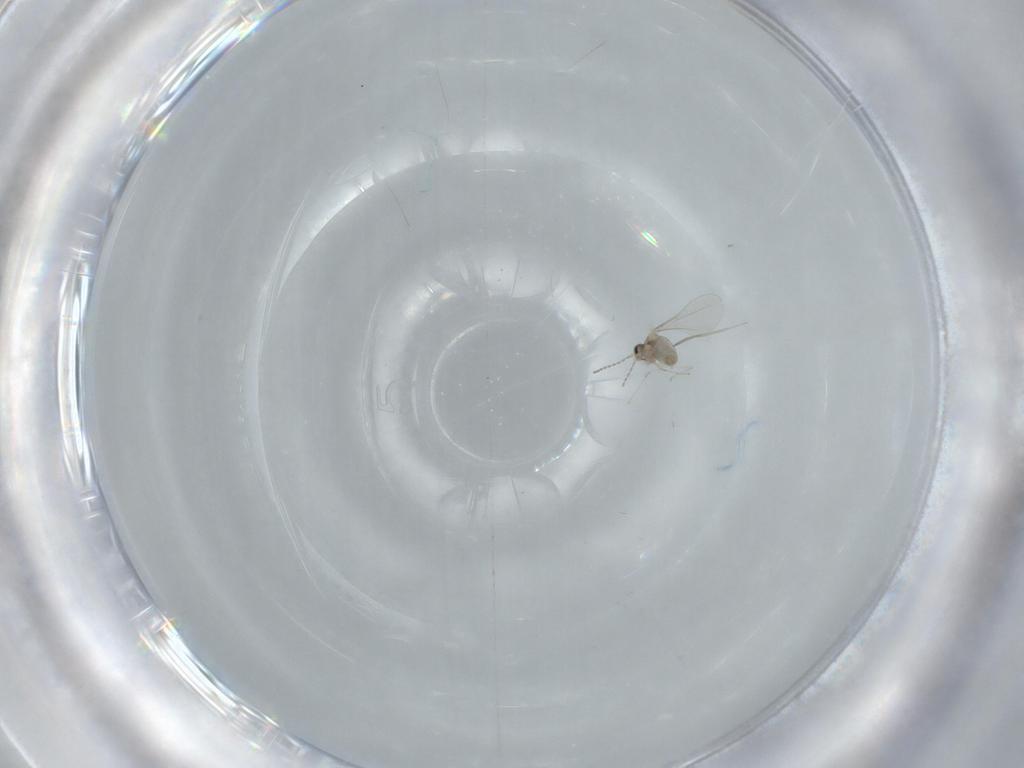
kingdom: Animalia
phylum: Arthropoda
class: Insecta
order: Diptera
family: Cecidomyiidae
